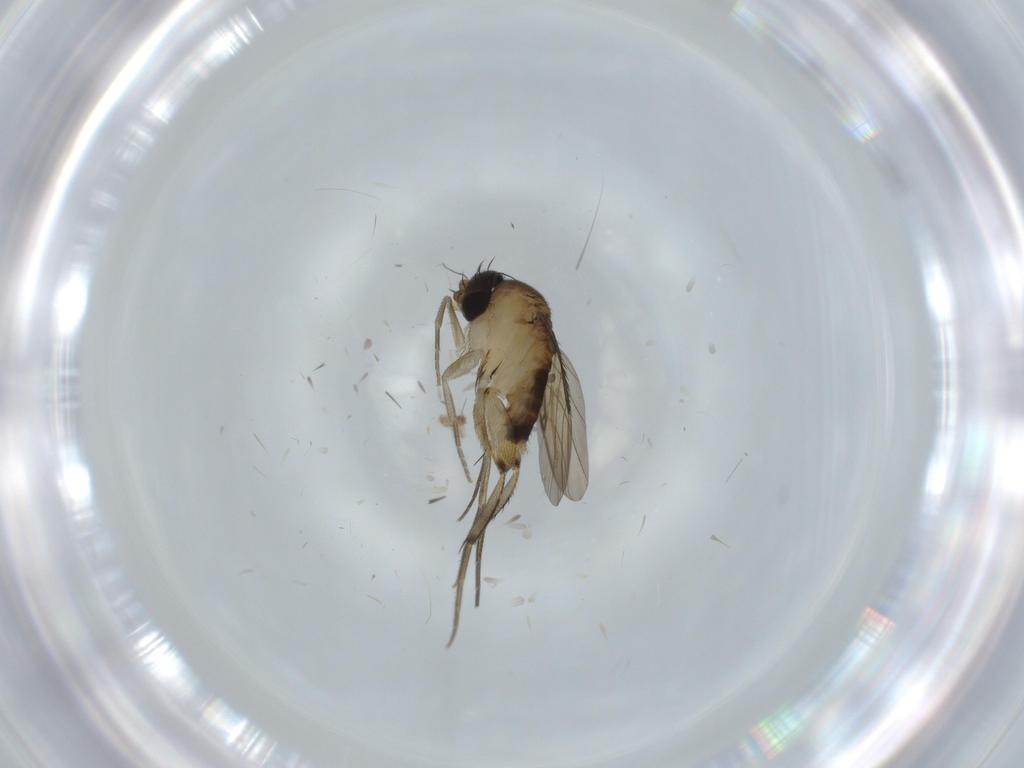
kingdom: Animalia
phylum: Arthropoda
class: Insecta
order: Diptera
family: Phoridae
